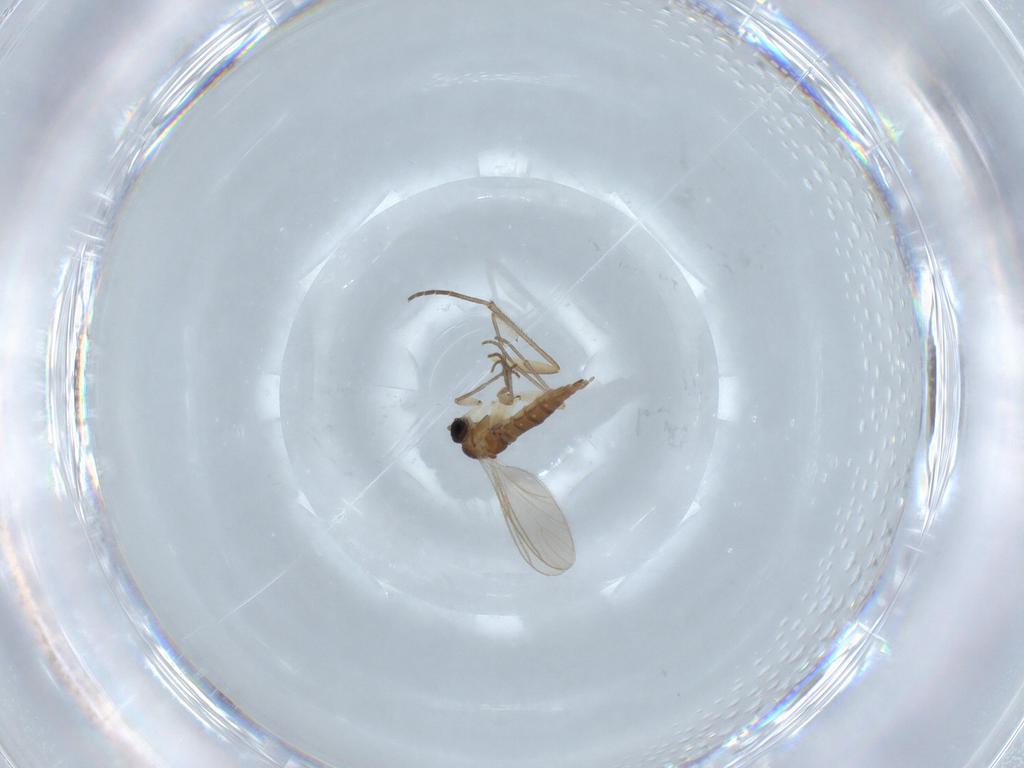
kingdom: Animalia
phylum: Arthropoda
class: Insecta
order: Diptera
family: Sciaridae
